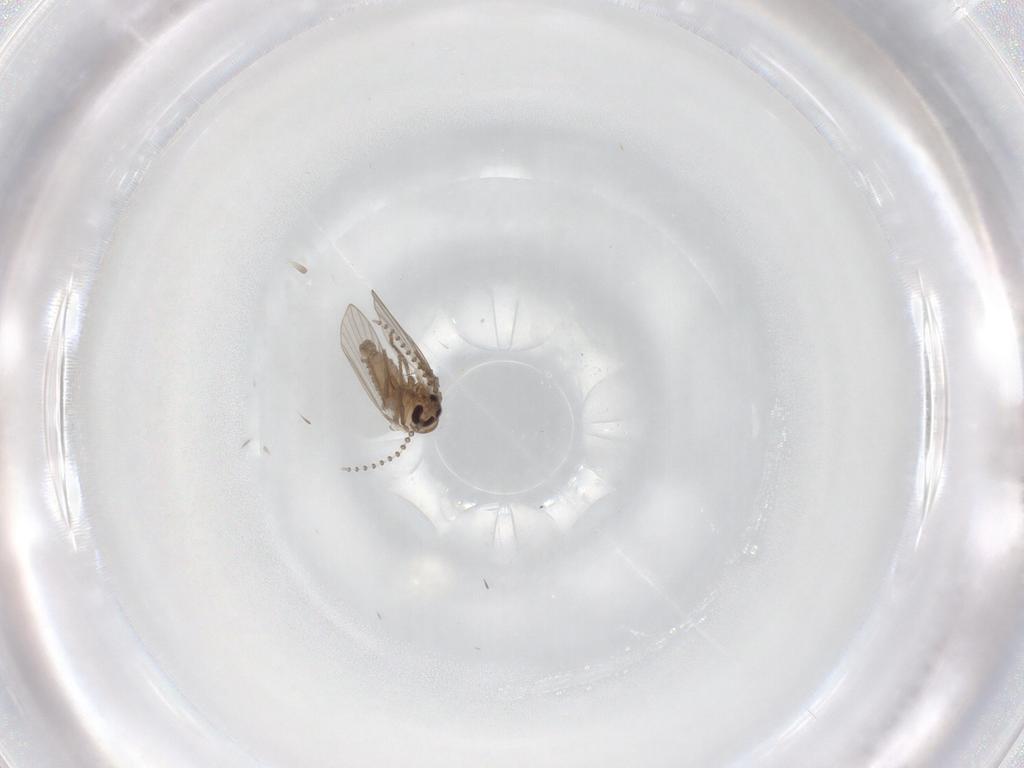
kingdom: Animalia
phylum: Arthropoda
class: Insecta
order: Diptera
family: Psychodidae
